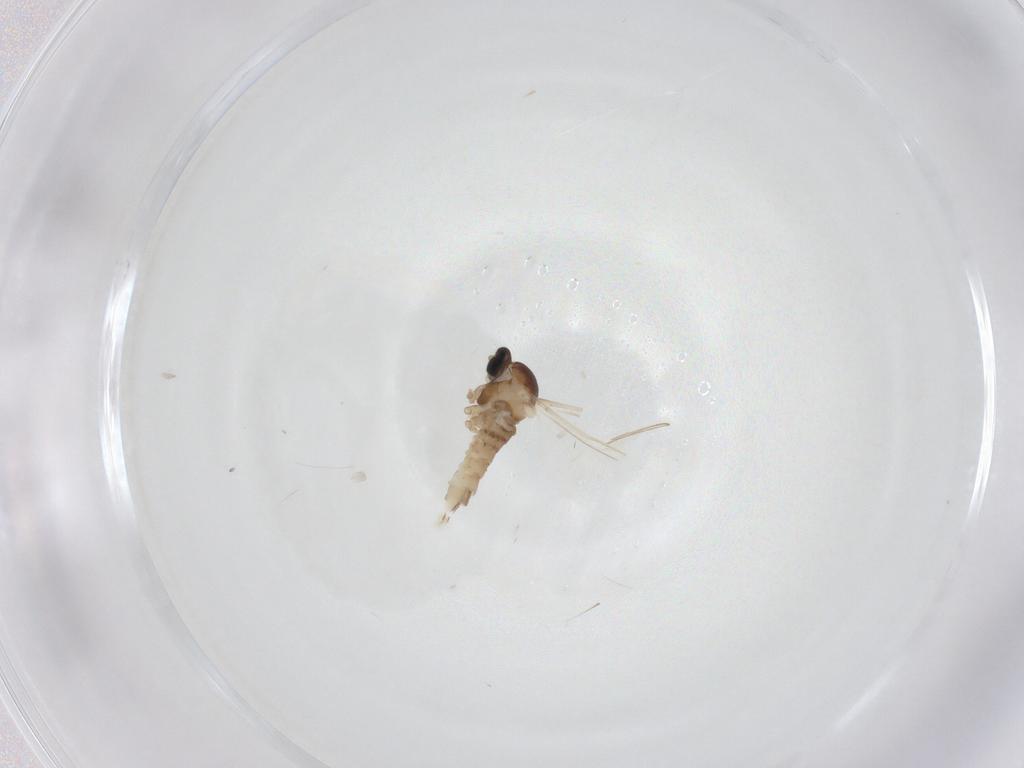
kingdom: Animalia
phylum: Arthropoda
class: Insecta
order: Diptera
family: Cecidomyiidae
